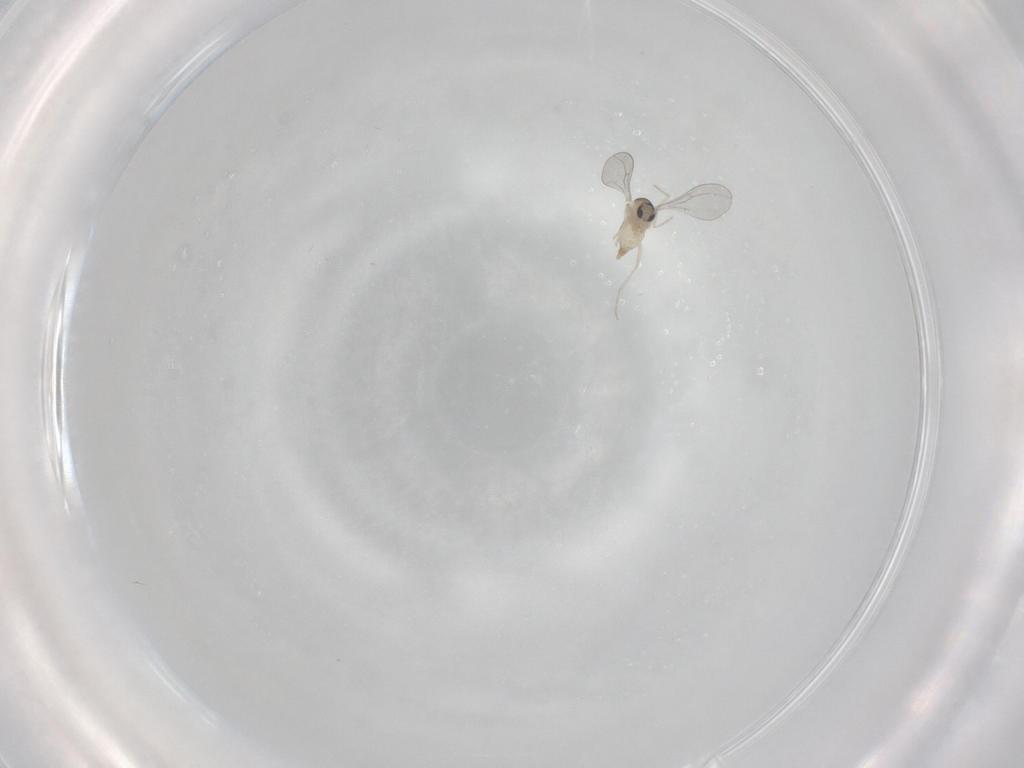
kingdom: Animalia
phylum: Arthropoda
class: Insecta
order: Diptera
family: Cecidomyiidae
